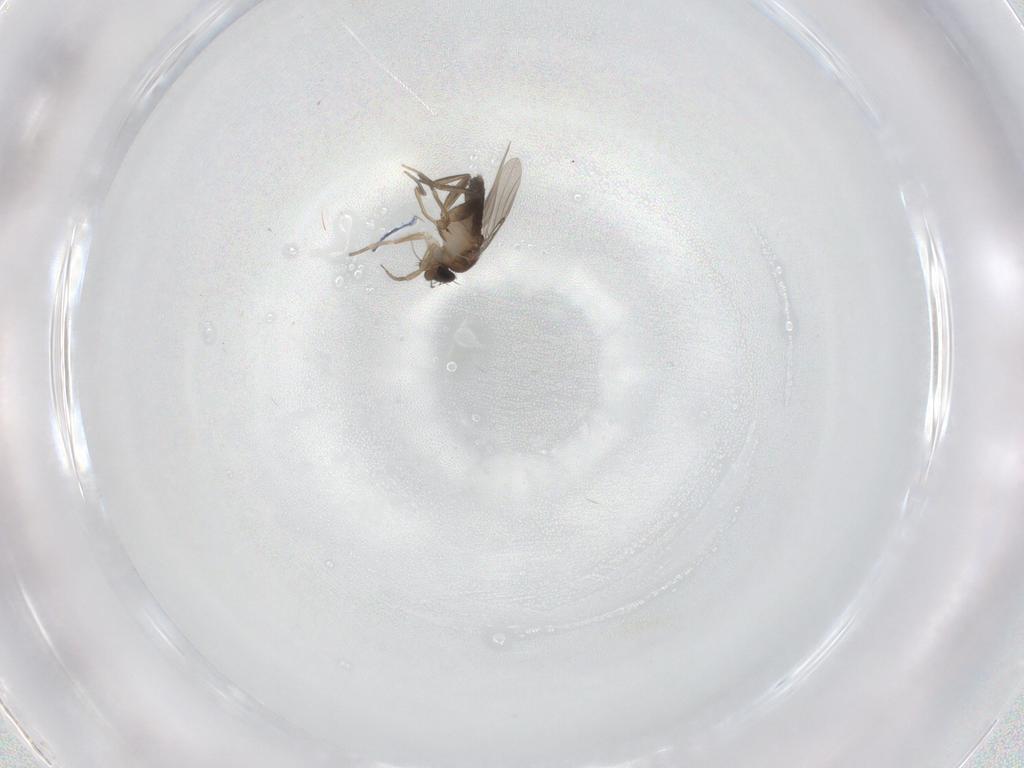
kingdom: Animalia
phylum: Arthropoda
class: Insecta
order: Diptera
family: Phoridae
